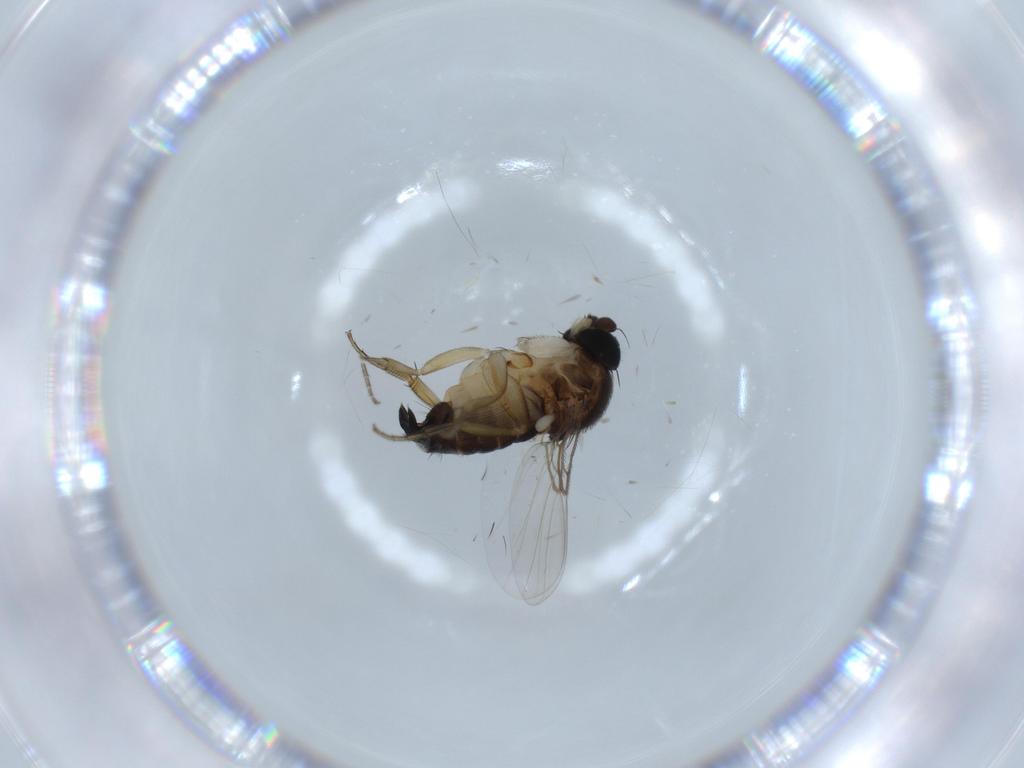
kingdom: Animalia
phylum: Arthropoda
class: Insecta
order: Diptera
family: Phoridae
